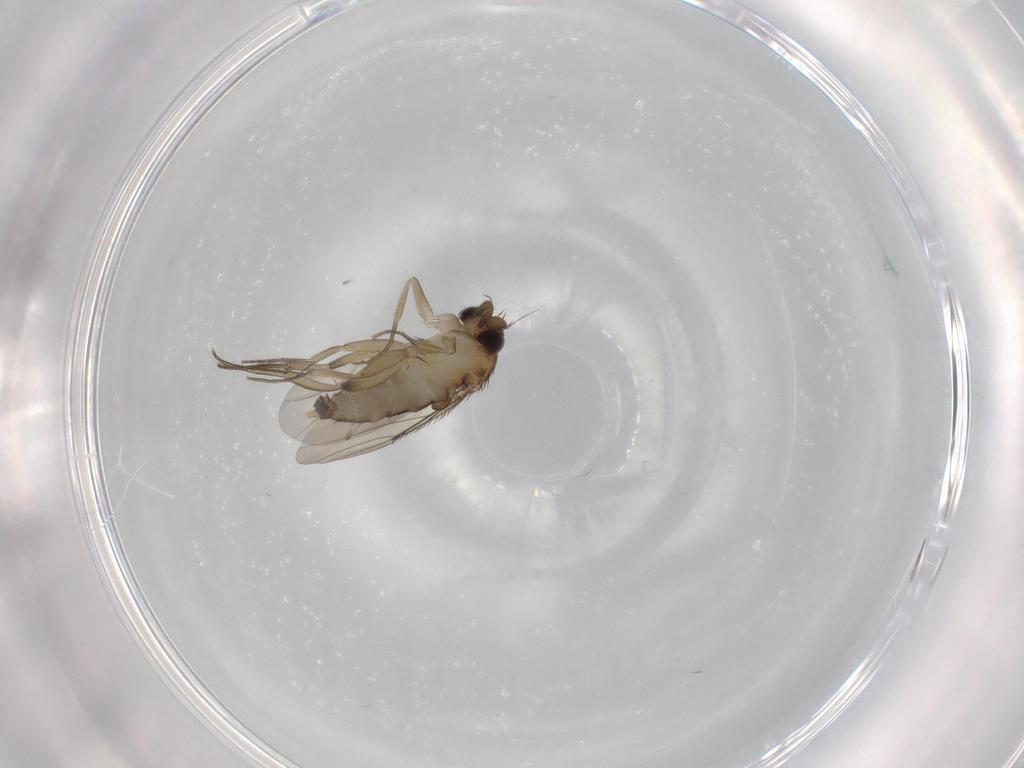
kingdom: Animalia
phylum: Arthropoda
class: Insecta
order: Diptera
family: Phoridae
